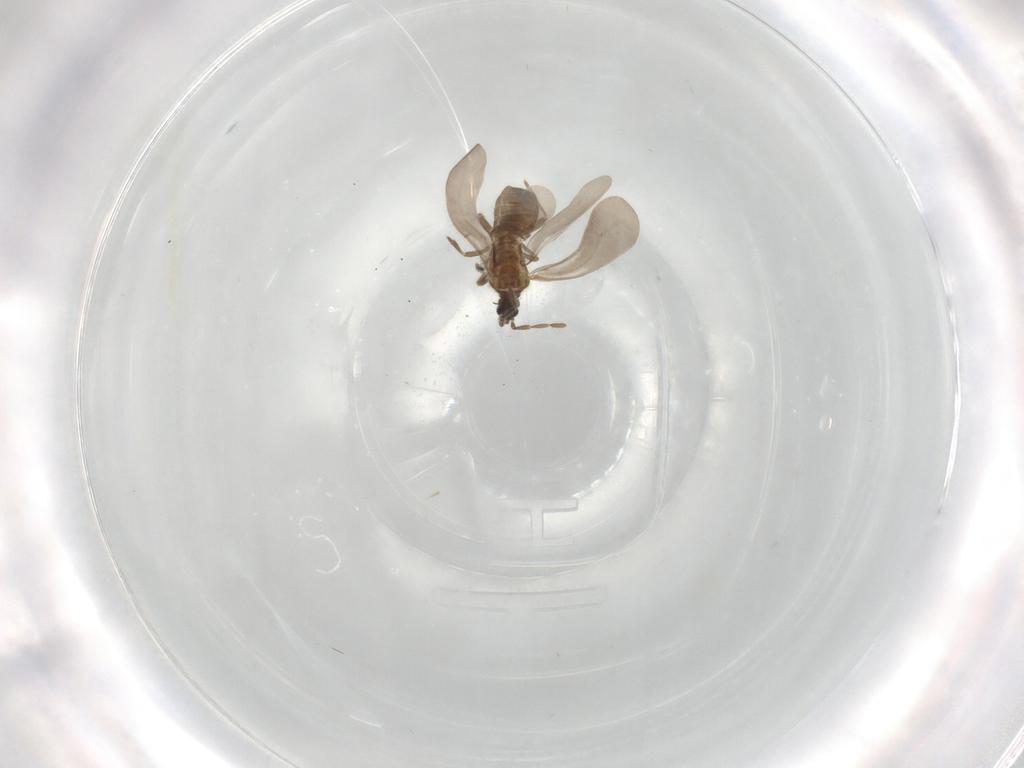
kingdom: Animalia
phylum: Arthropoda
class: Insecta
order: Hemiptera
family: Enicocephalidae
